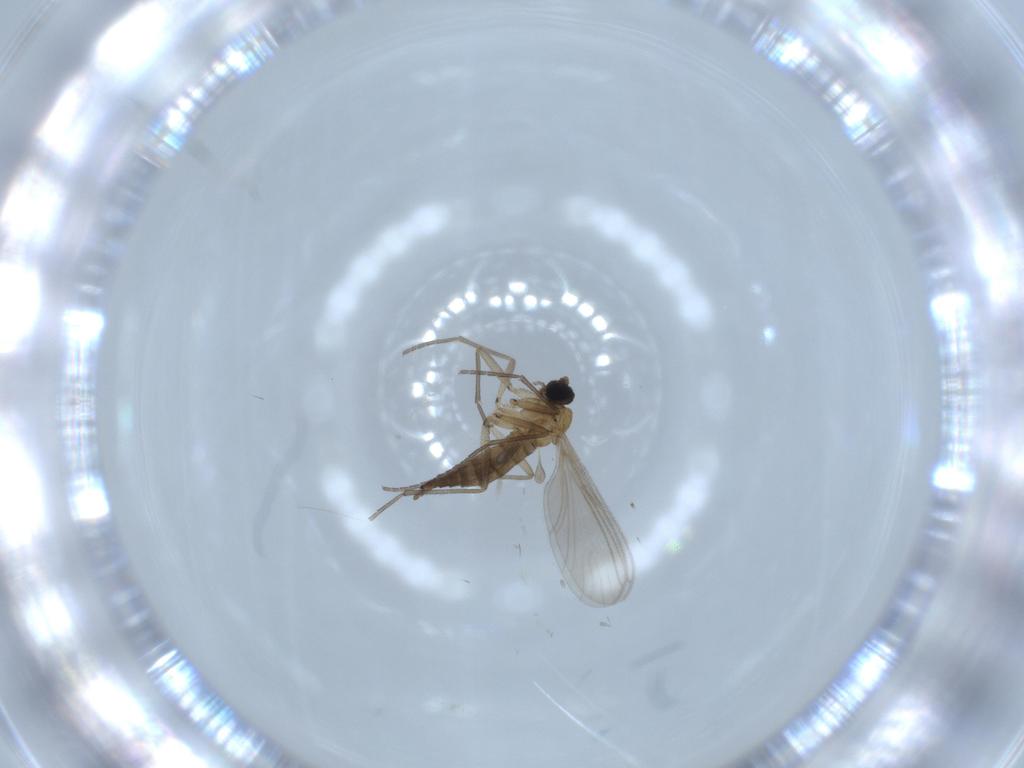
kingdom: Animalia
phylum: Arthropoda
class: Insecta
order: Diptera
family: Sciaridae
